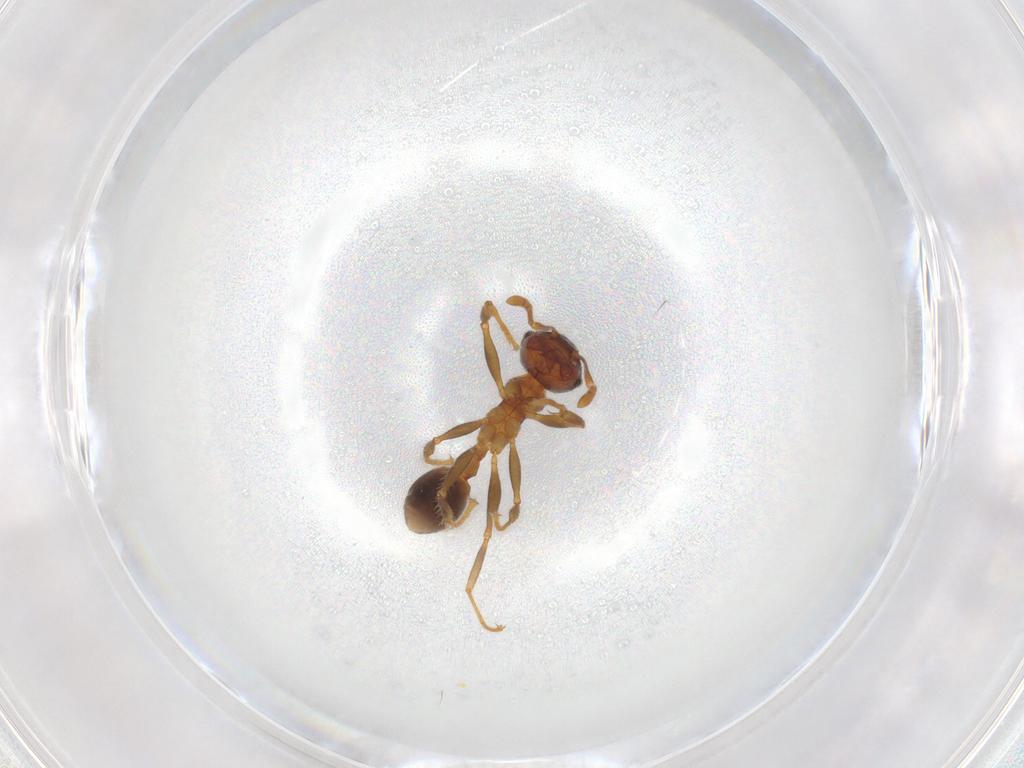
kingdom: Animalia
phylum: Arthropoda
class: Insecta
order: Hymenoptera
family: Formicidae
